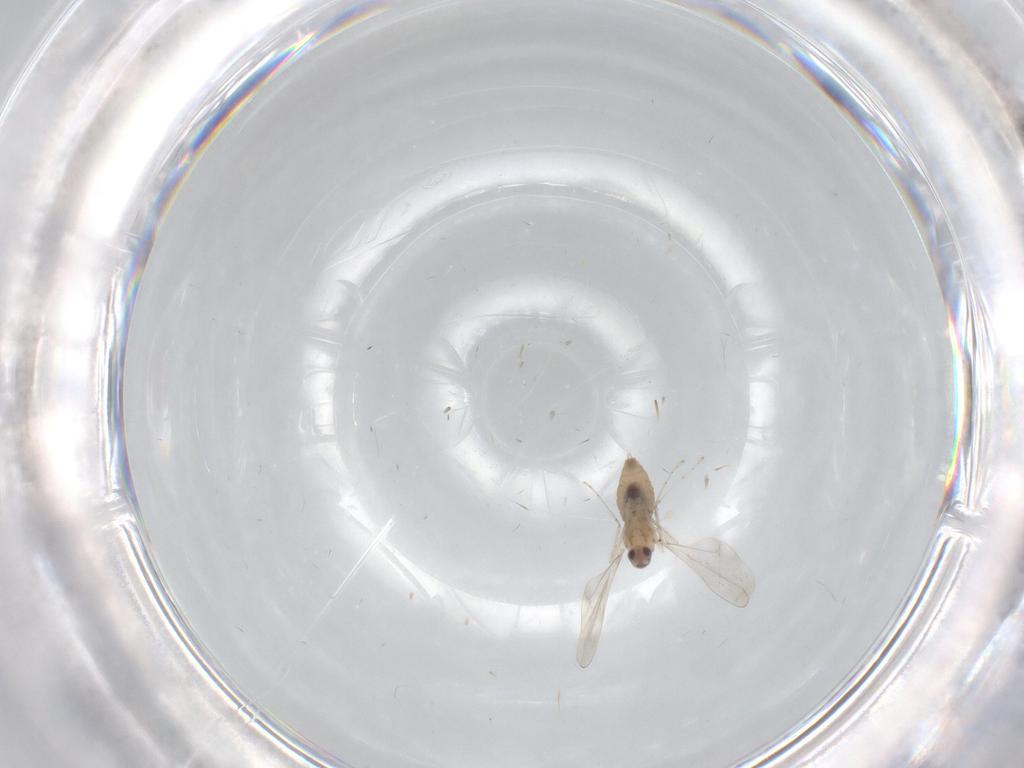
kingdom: Animalia
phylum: Arthropoda
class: Insecta
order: Diptera
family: Cecidomyiidae
